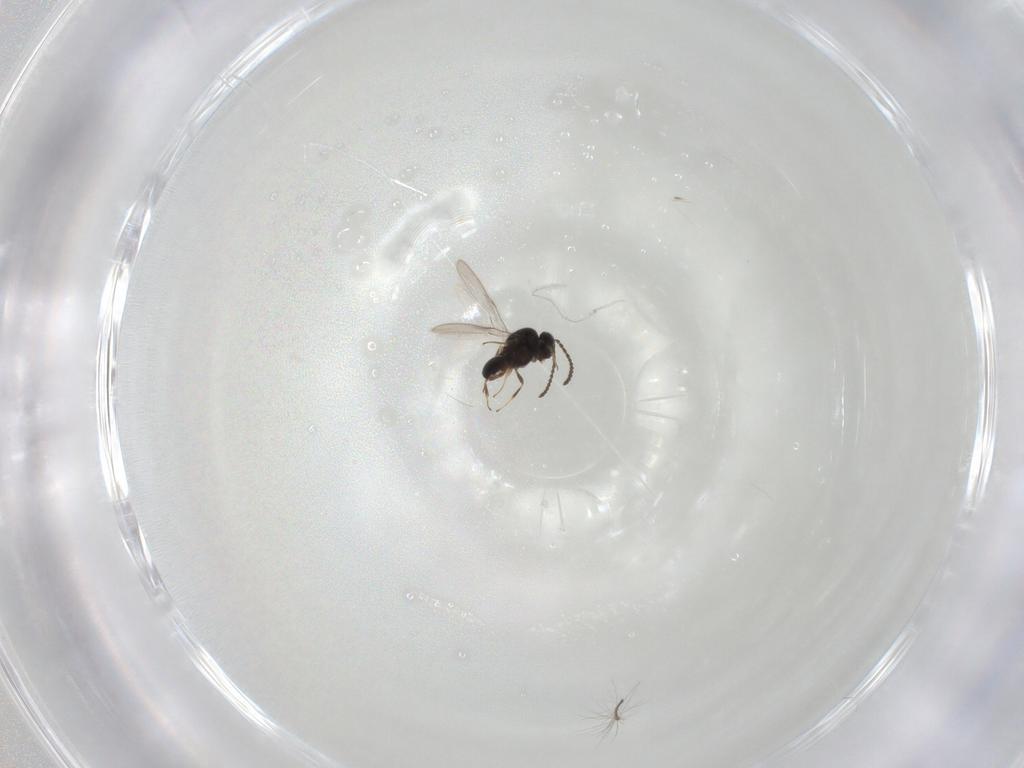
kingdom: Animalia
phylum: Arthropoda
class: Insecta
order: Hymenoptera
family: Scelionidae
